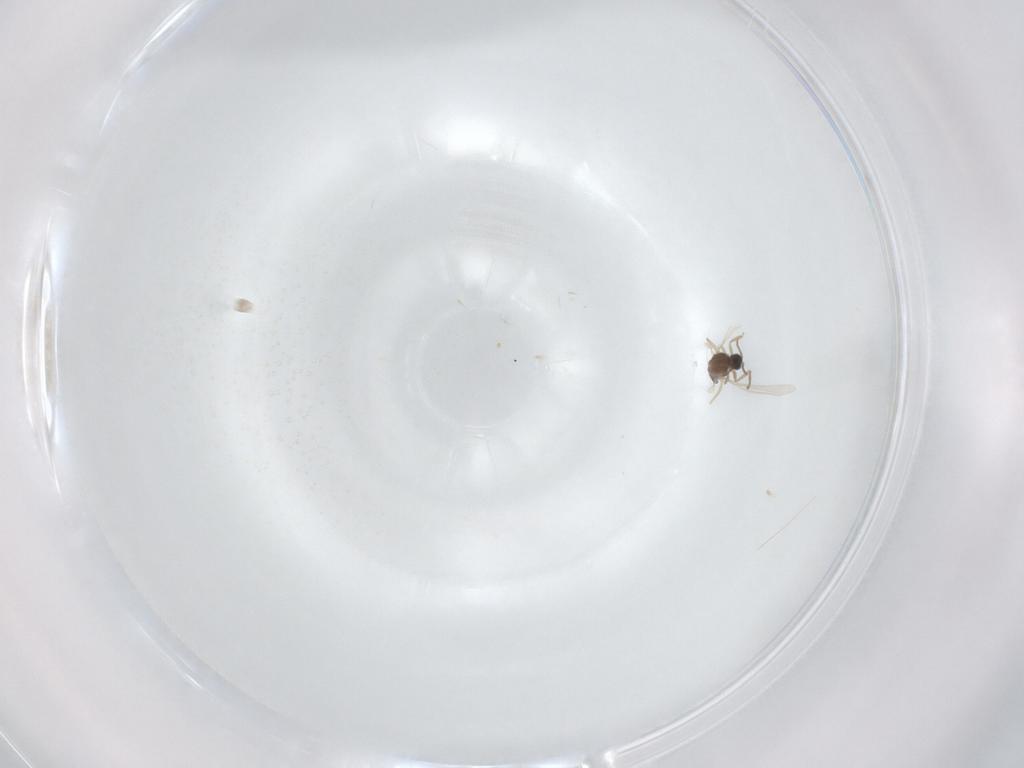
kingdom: Animalia
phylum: Arthropoda
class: Insecta
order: Diptera
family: Cecidomyiidae
